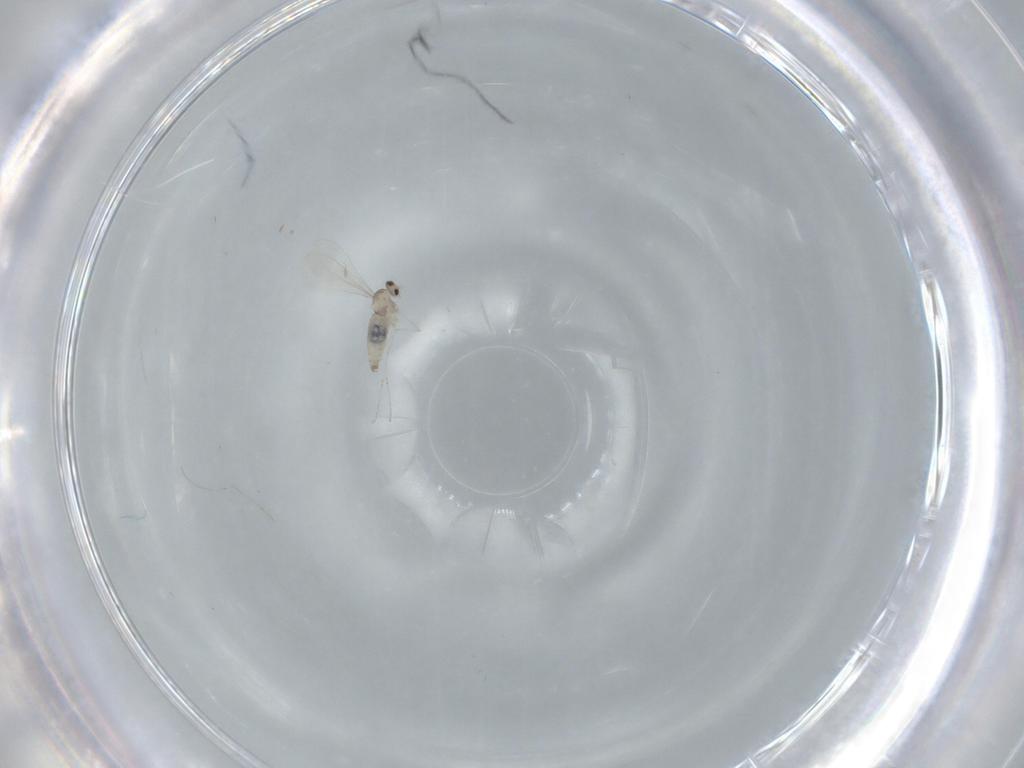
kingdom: Animalia
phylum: Arthropoda
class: Insecta
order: Diptera
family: Cecidomyiidae
